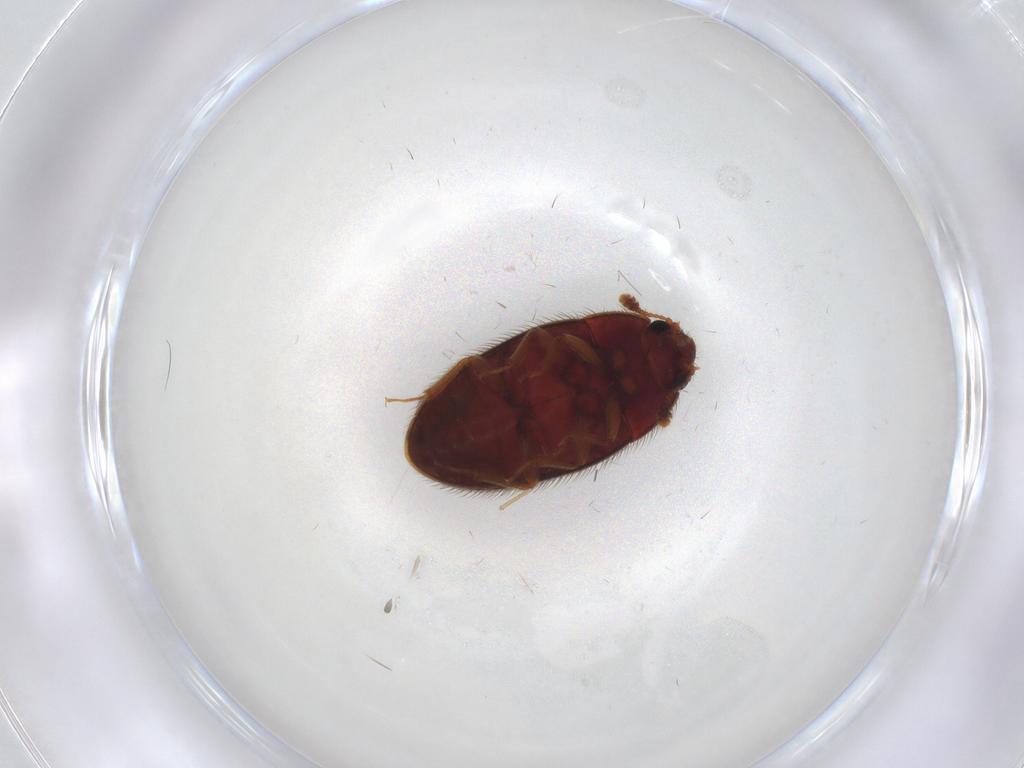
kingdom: Animalia
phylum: Arthropoda
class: Insecta
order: Coleoptera
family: Biphyllidae
